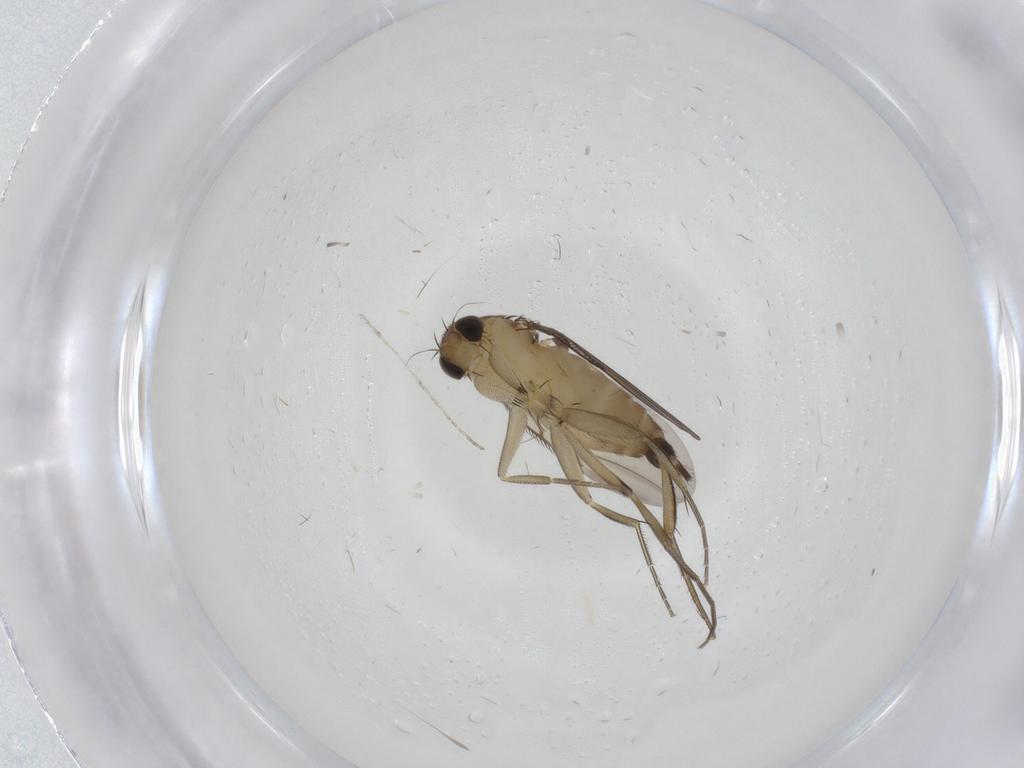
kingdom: Animalia
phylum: Arthropoda
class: Insecta
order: Diptera
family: Phoridae
